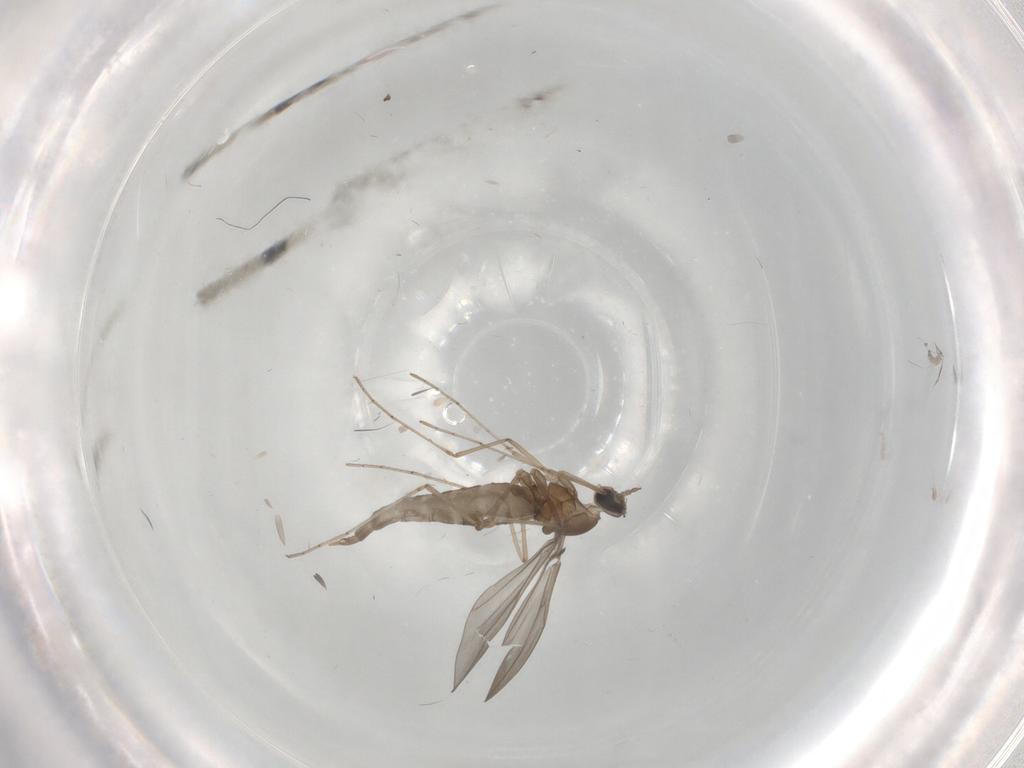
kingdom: Animalia
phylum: Arthropoda
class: Insecta
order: Diptera
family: Cecidomyiidae
